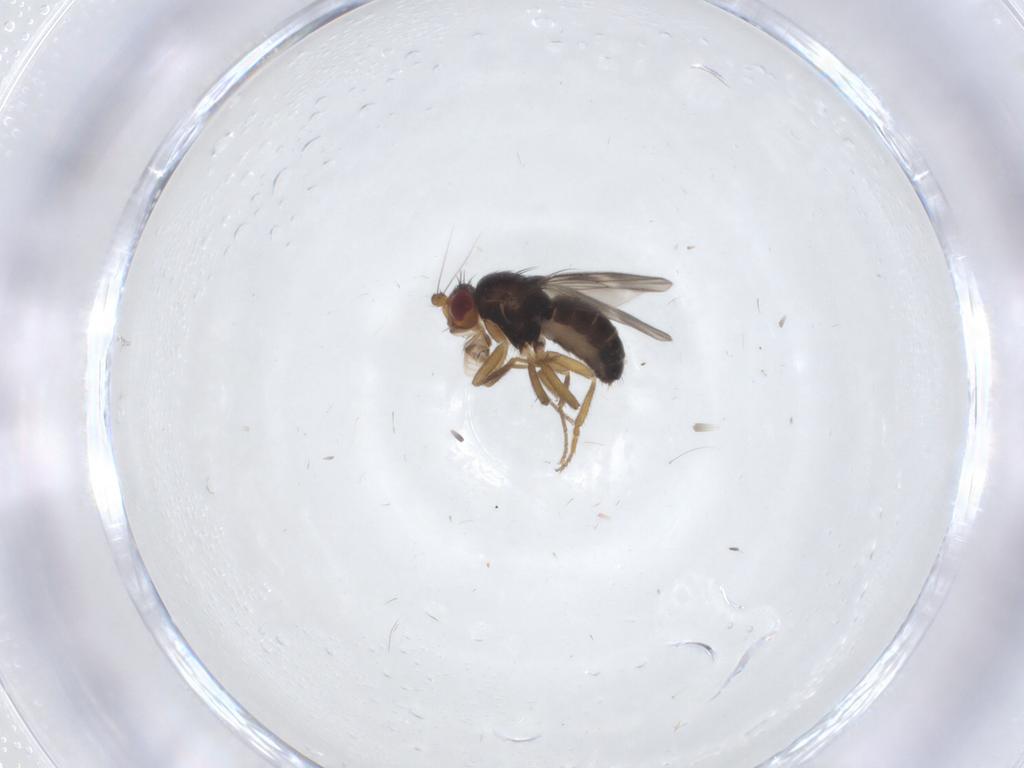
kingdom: Animalia
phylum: Arthropoda
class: Insecta
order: Diptera
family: Sphaeroceridae
